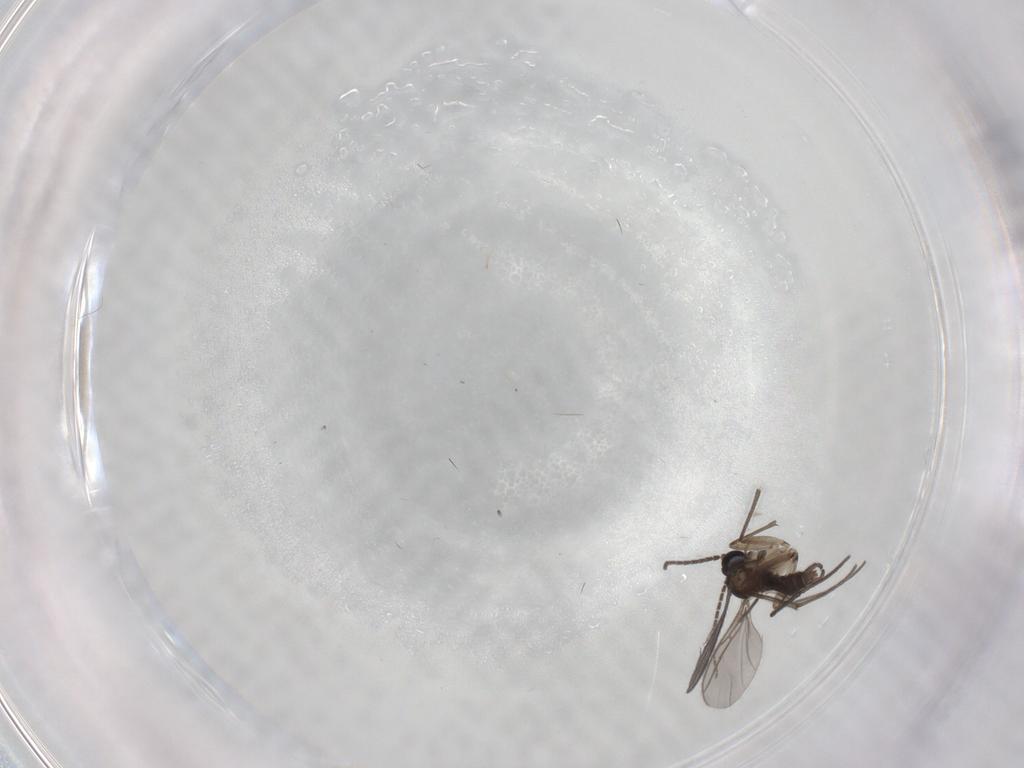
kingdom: Animalia
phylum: Arthropoda
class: Insecta
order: Diptera
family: Sciaridae
